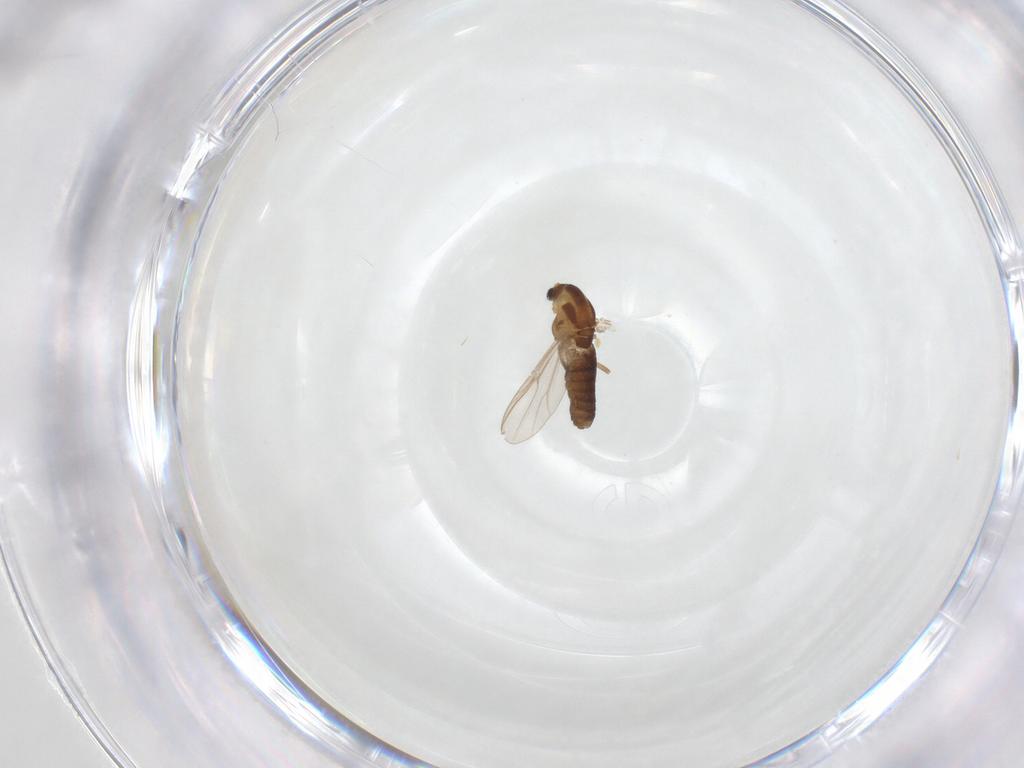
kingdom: Animalia
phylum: Arthropoda
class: Insecta
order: Diptera
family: Chironomidae
